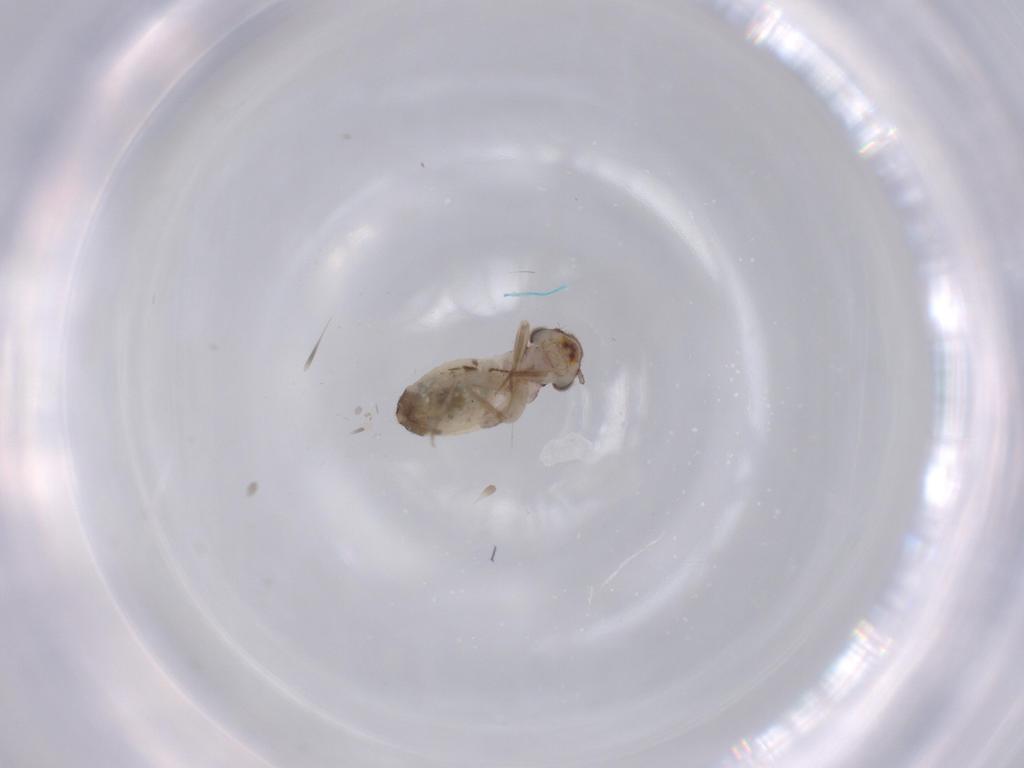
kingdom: Animalia
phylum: Arthropoda
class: Insecta
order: Psocodea
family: Lepidopsocidae
